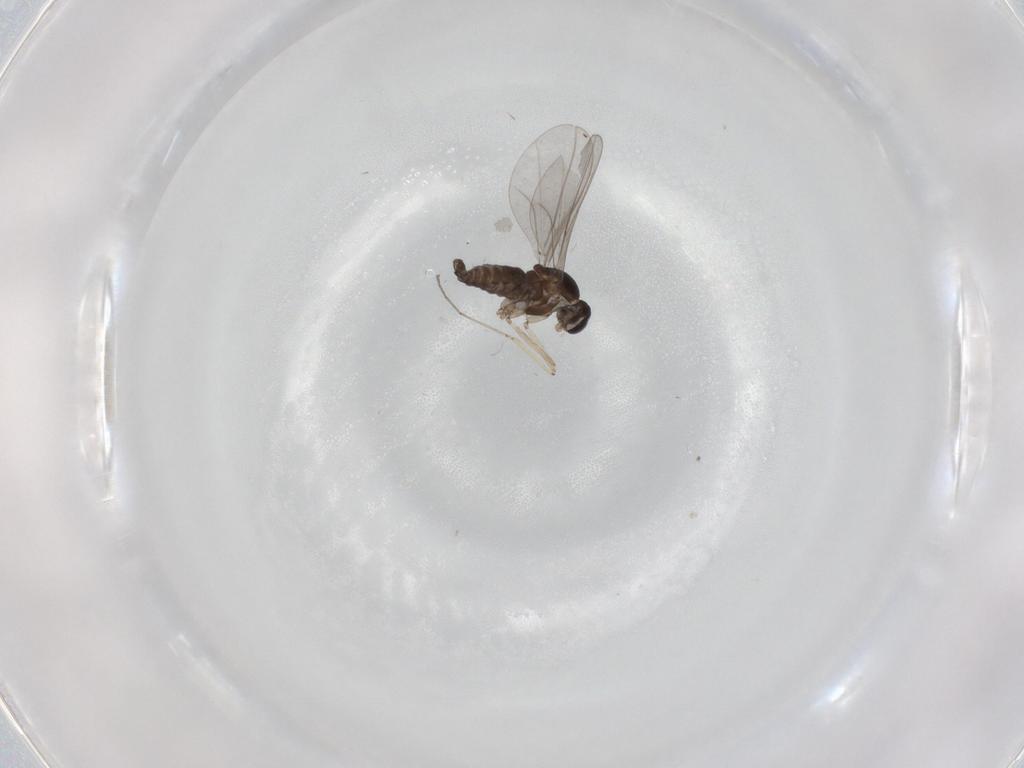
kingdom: Animalia
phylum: Arthropoda
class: Insecta
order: Diptera
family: Cecidomyiidae
